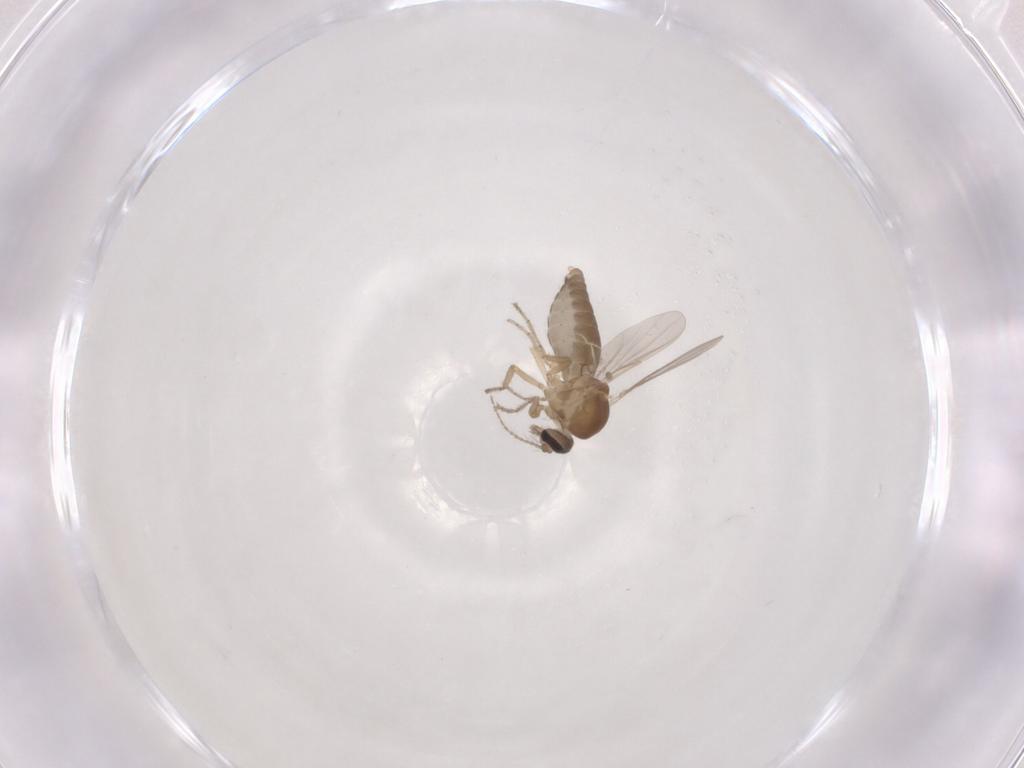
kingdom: Animalia
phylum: Arthropoda
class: Insecta
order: Diptera
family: Ceratopogonidae
